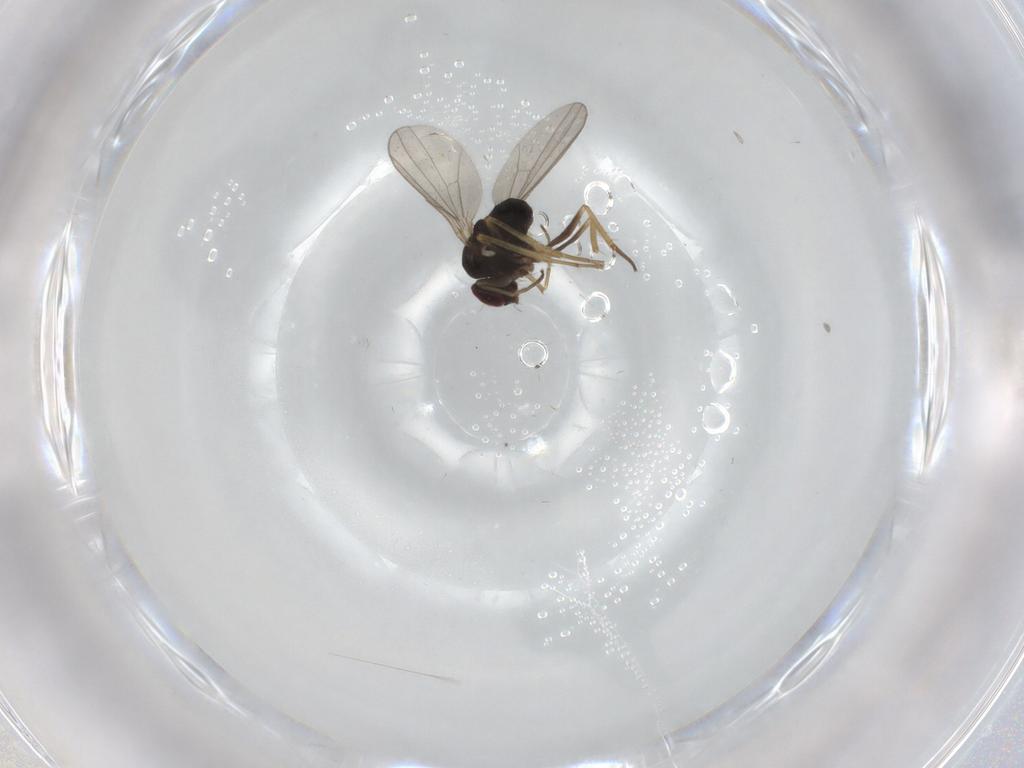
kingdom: Animalia
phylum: Arthropoda
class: Insecta
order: Diptera
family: Dolichopodidae
